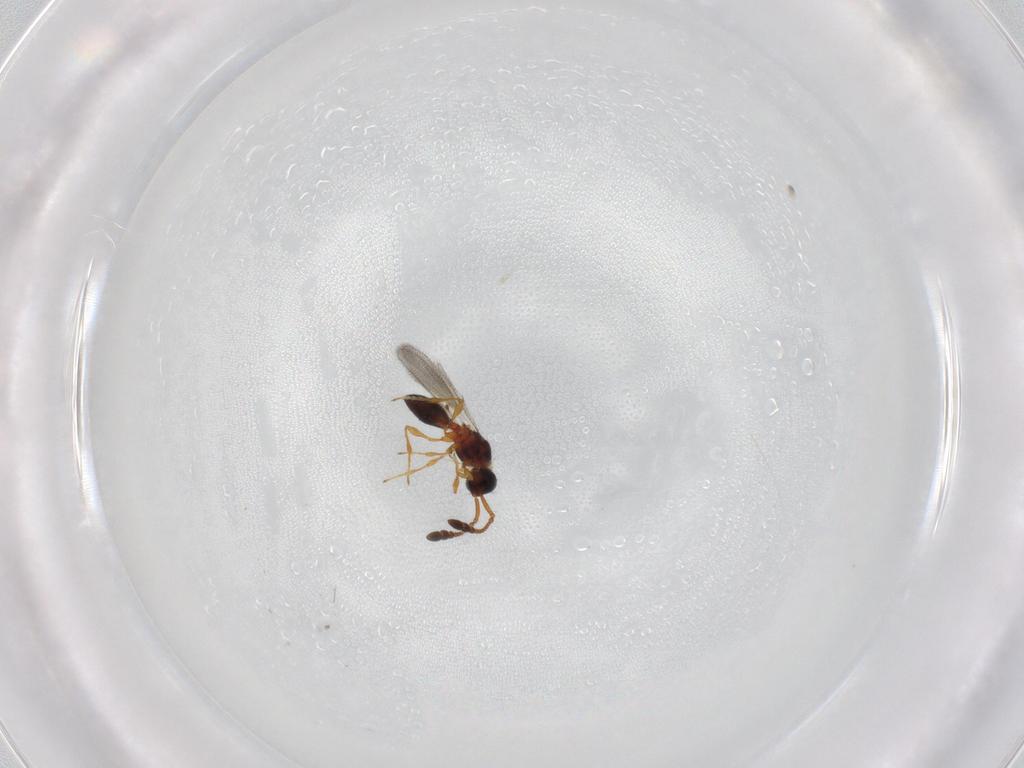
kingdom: Animalia
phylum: Arthropoda
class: Insecta
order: Hymenoptera
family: Diapriidae
